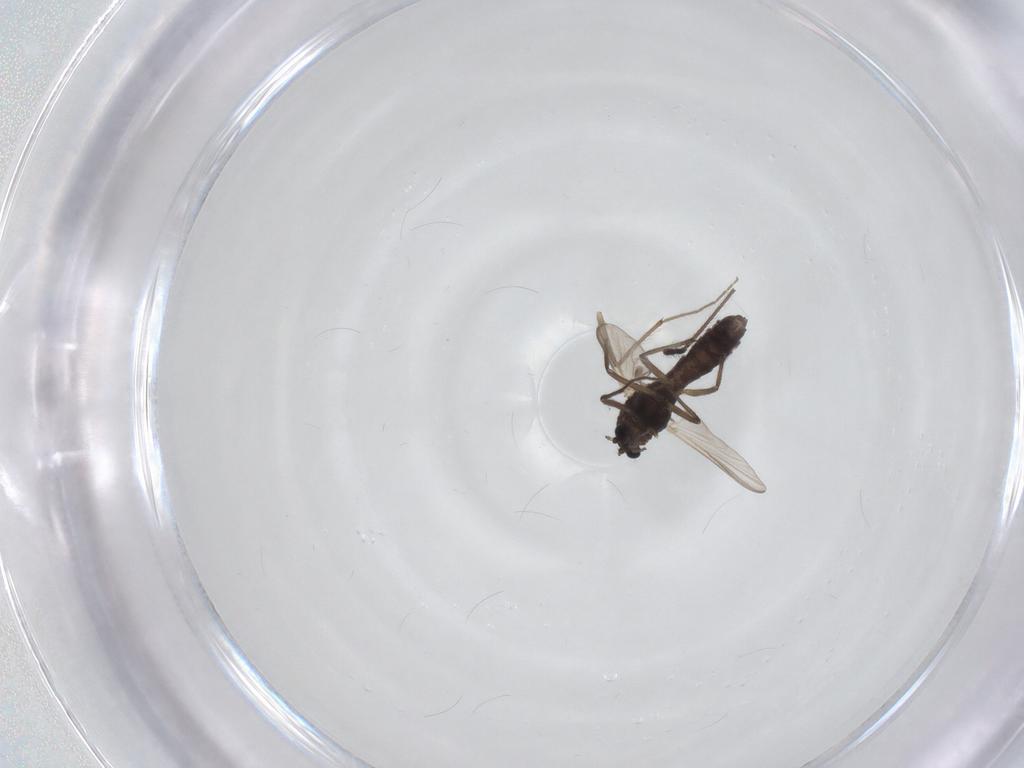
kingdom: Animalia
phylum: Arthropoda
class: Insecta
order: Diptera
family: Chironomidae
